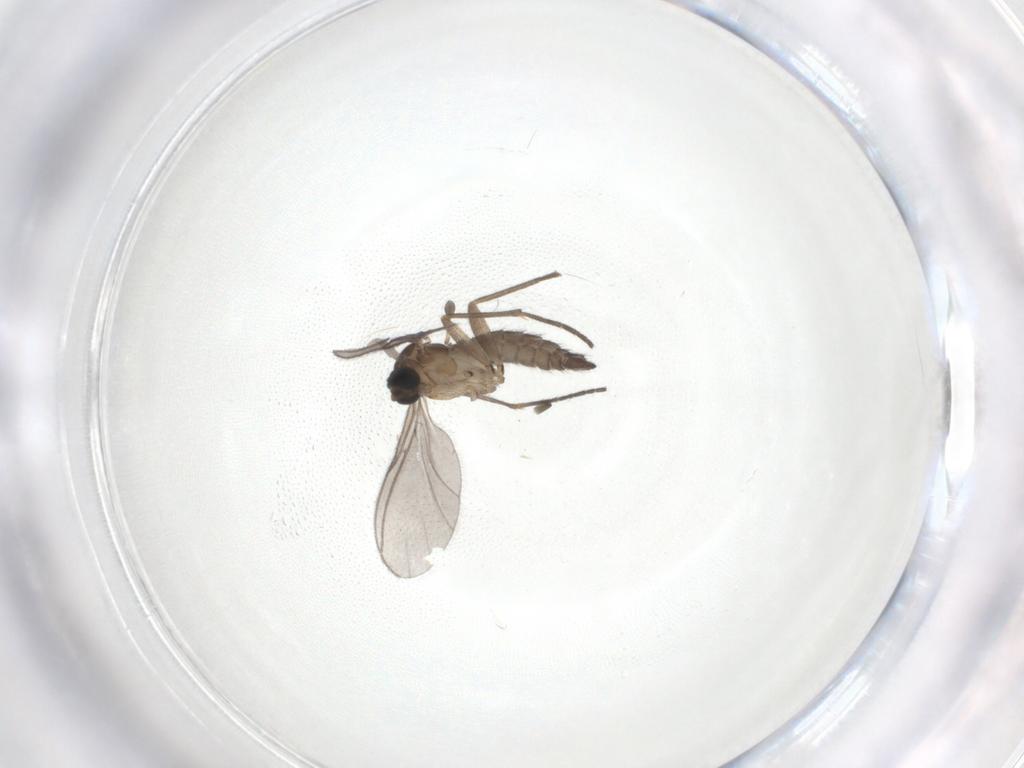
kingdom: Animalia
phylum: Arthropoda
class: Insecta
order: Diptera
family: Sciaridae
